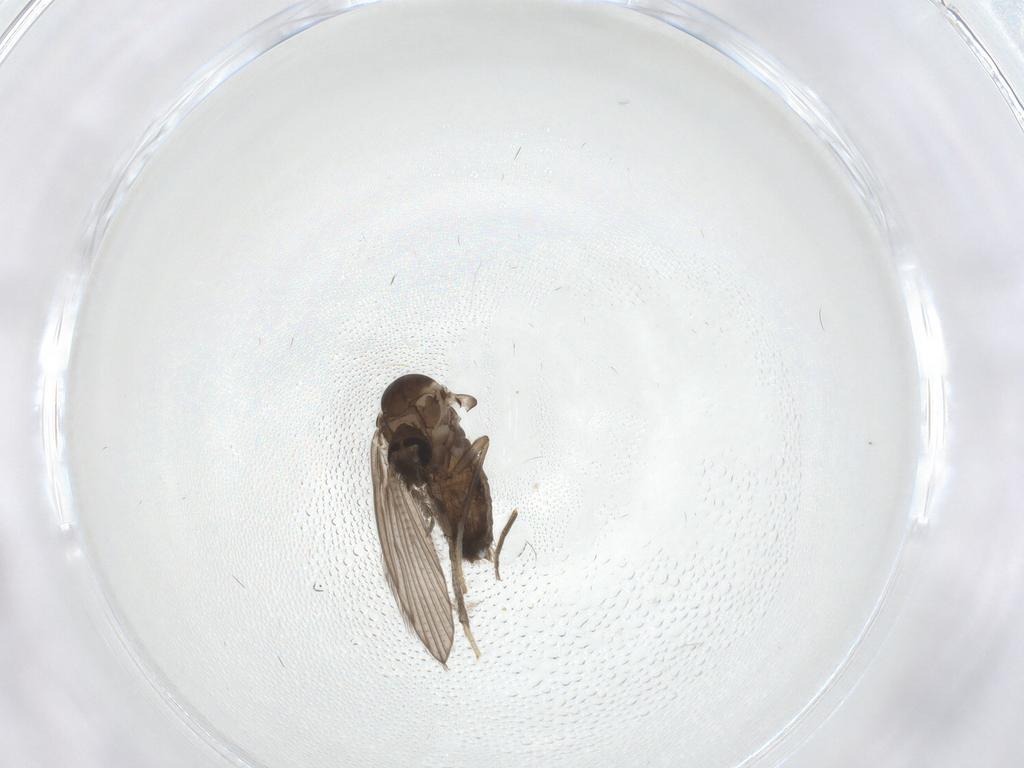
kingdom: Animalia
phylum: Arthropoda
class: Insecta
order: Diptera
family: Psychodidae
